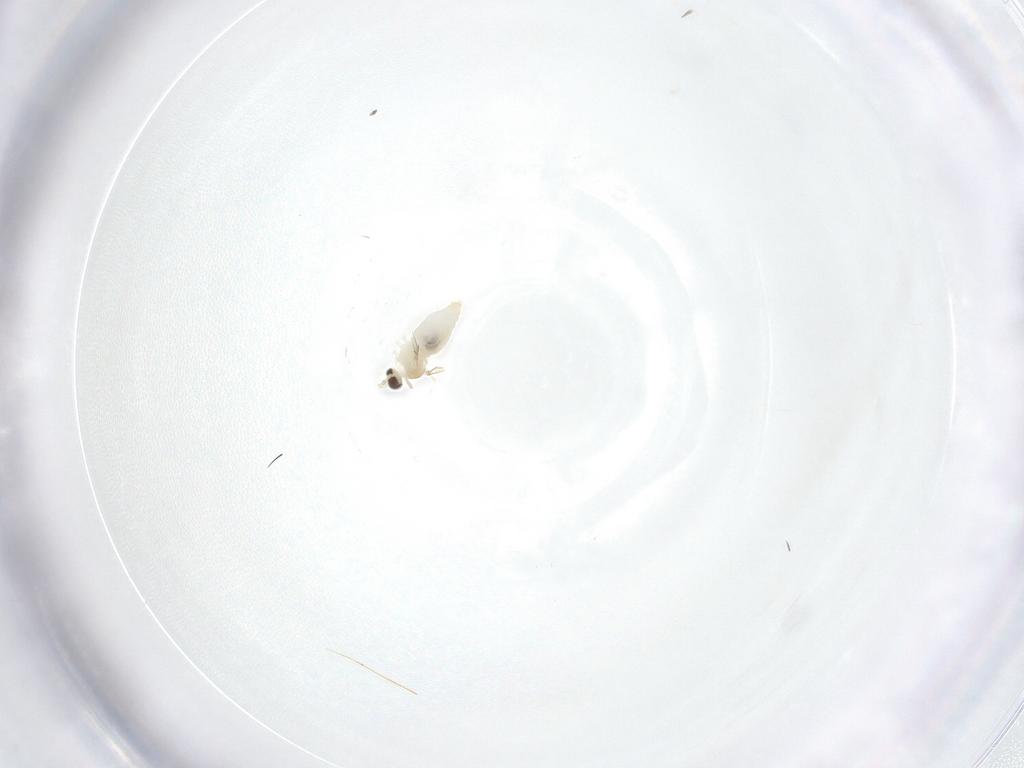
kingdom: Animalia
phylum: Arthropoda
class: Insecta
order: Diptera
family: Cecidomyiidae
